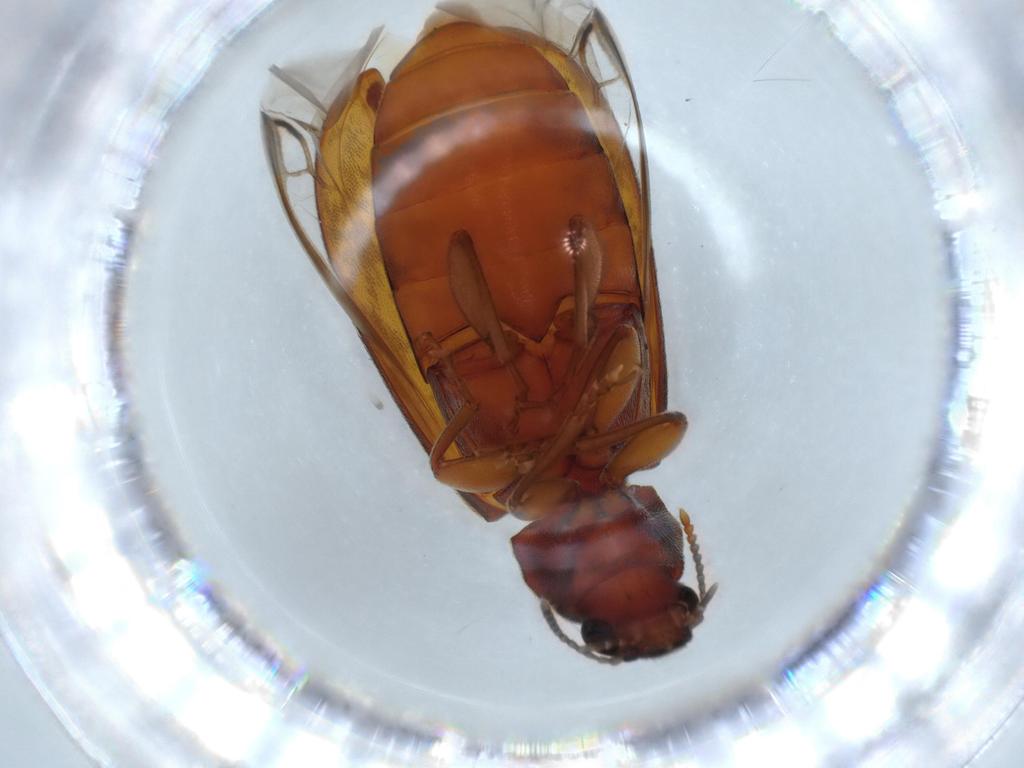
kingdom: Animalia
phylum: Arthropoda
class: Insecta
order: Coleoptera
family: Mycteridae
